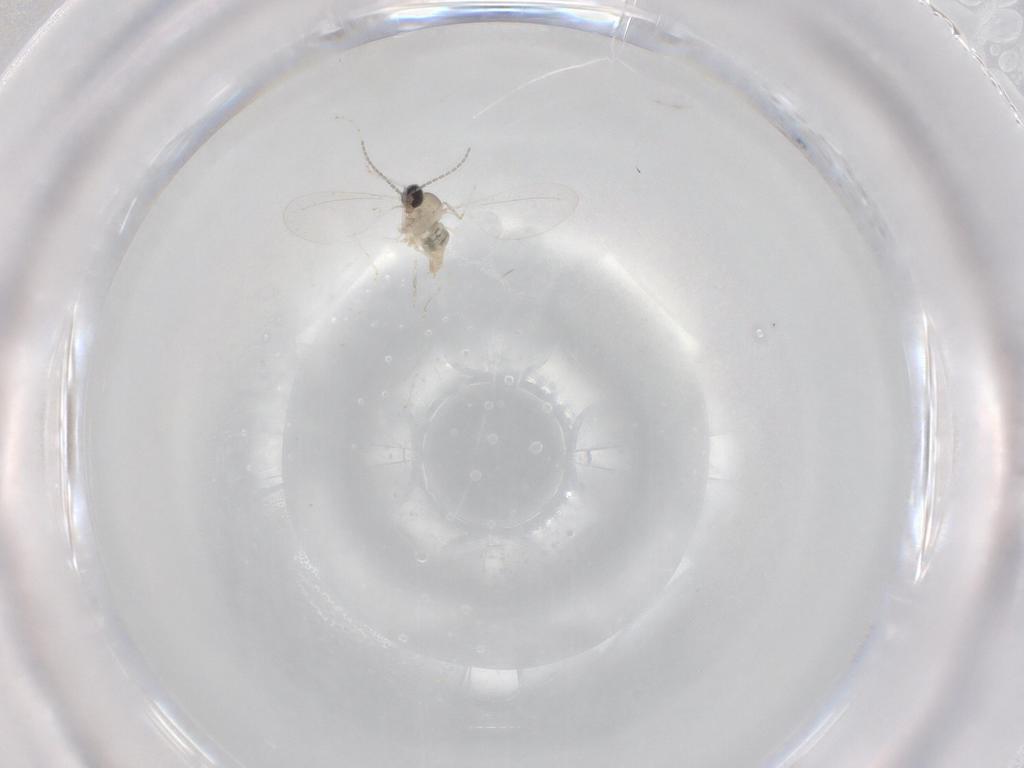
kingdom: Animalia
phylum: Arthropoda
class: Insecta
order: Diptera
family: Cecidomyiidae
